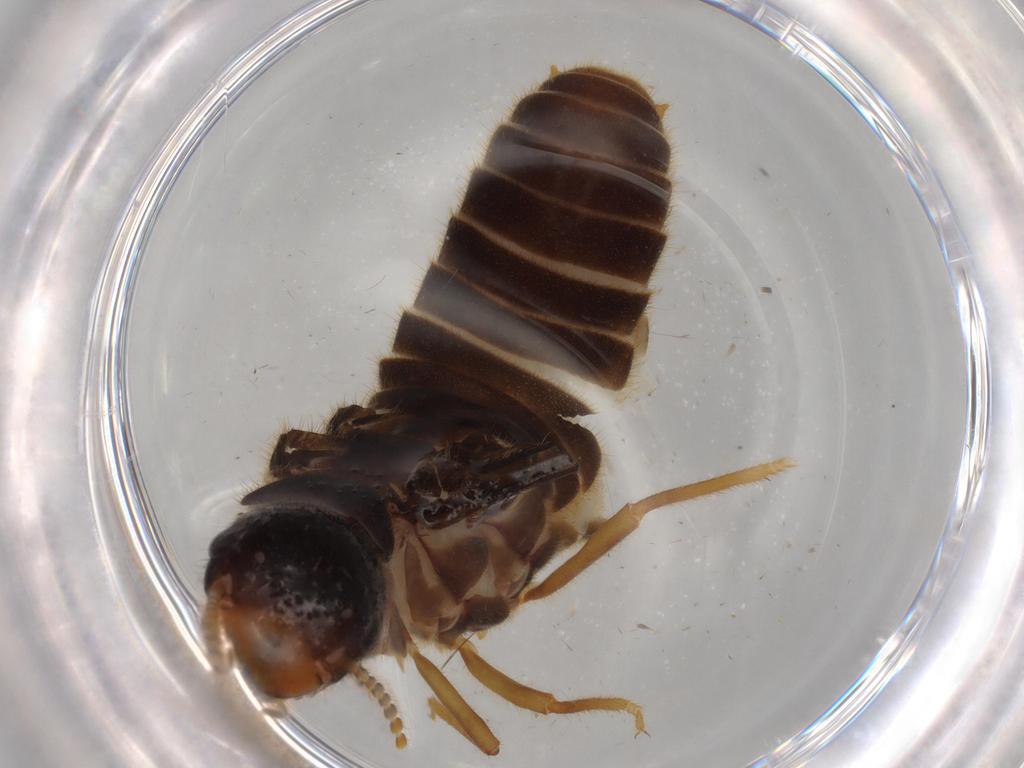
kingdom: Animalia
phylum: Arthropoda
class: Insecta
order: Blattodea
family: Termitidae
